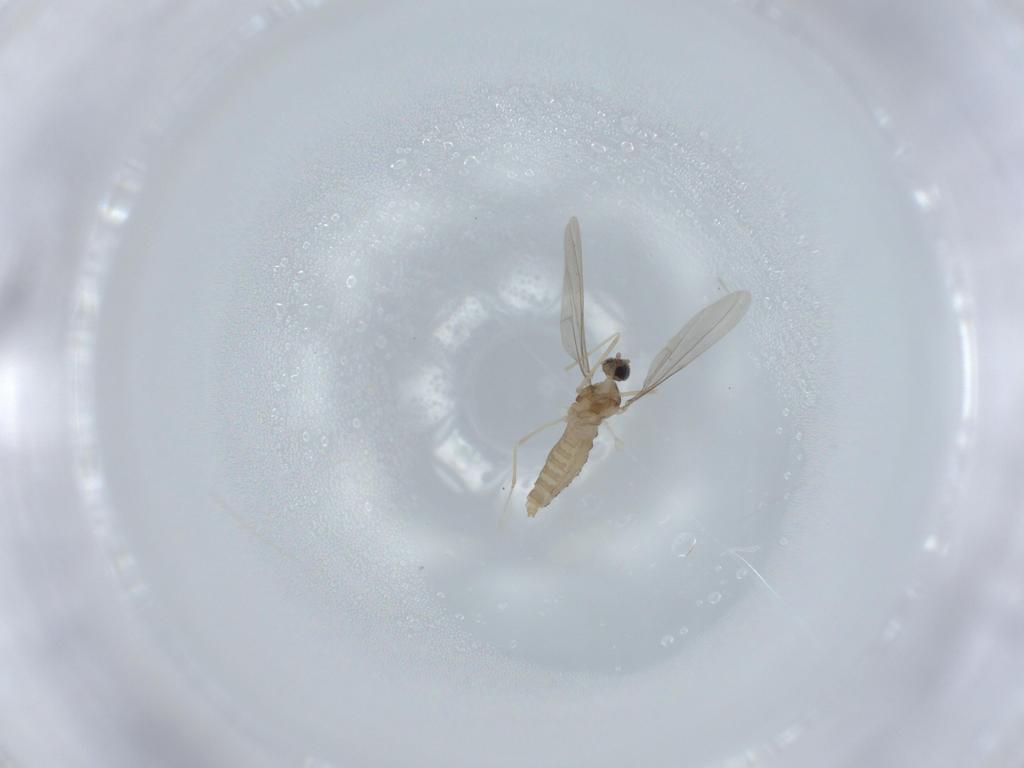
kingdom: Animalia
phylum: Arthropoda
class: Insecta
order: Diptera
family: Cecidomyiidae
